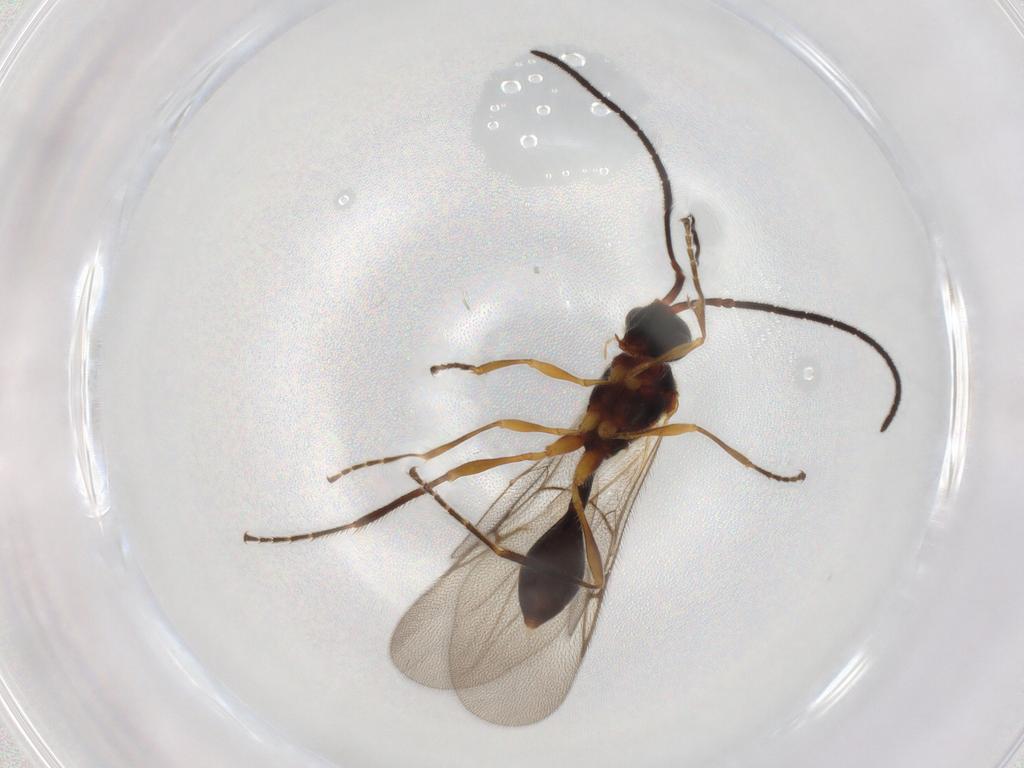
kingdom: Animalia
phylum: Arthropoda
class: Insecta
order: Hymenoptera
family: Diapriidae
